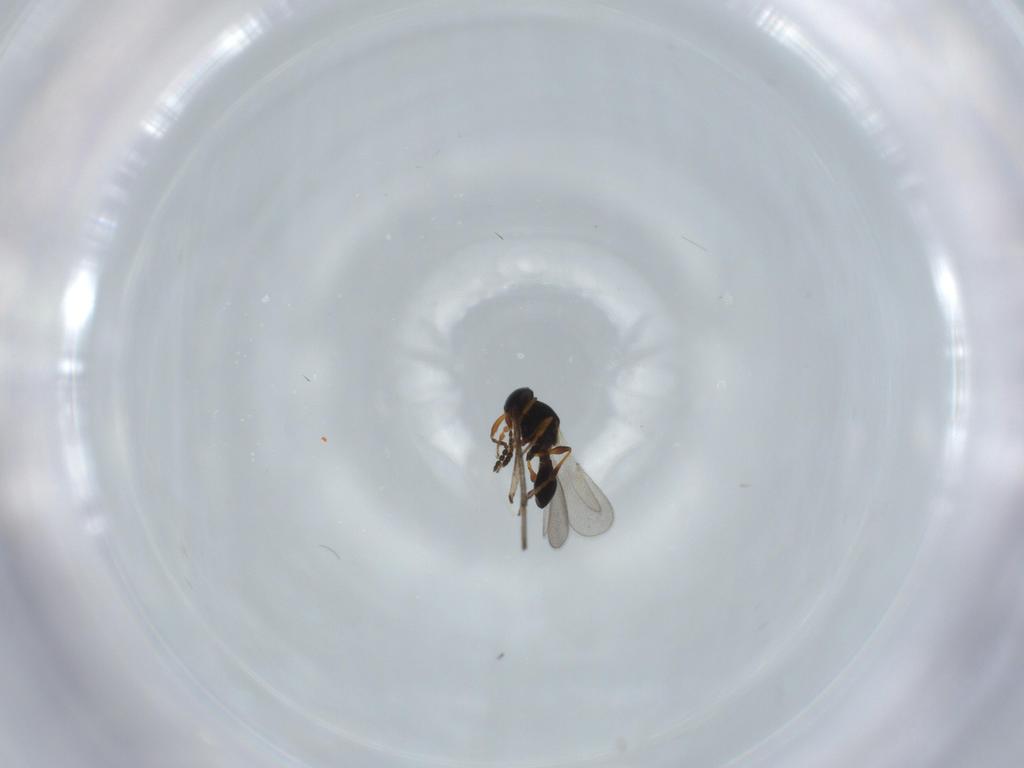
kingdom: Animalia
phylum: Arthropoda
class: Insecta
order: Hymenoptera
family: Platygastridae
